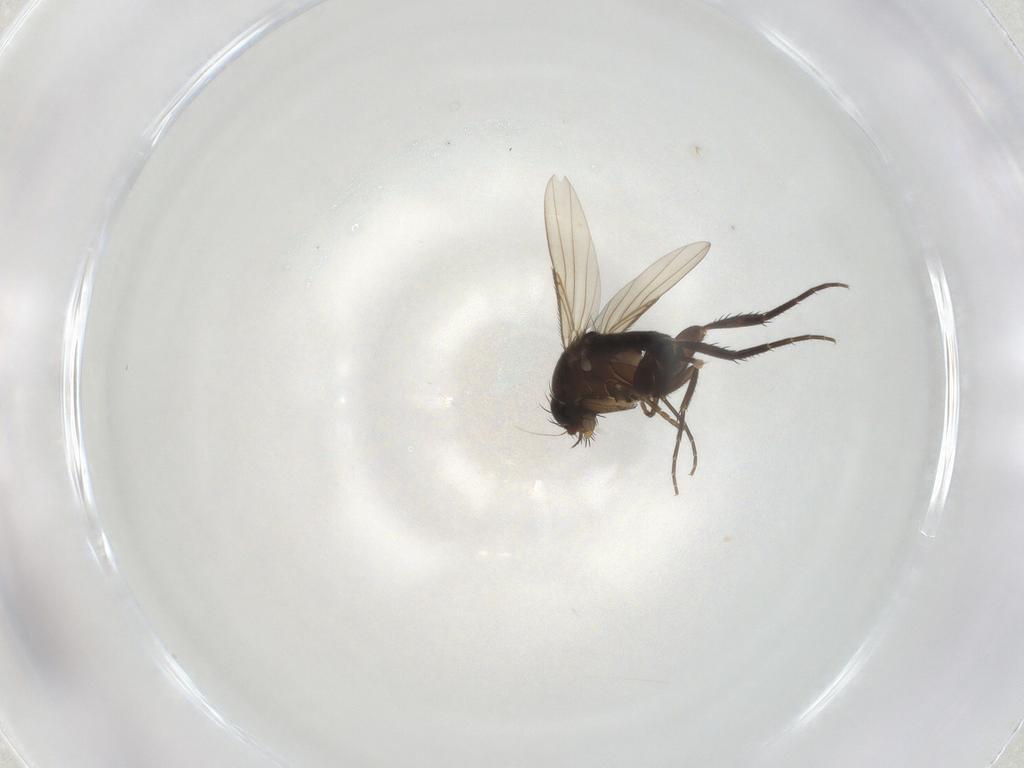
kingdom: Animalia
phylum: Arthropoda
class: Insecta
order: Diptera
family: Phoridae
